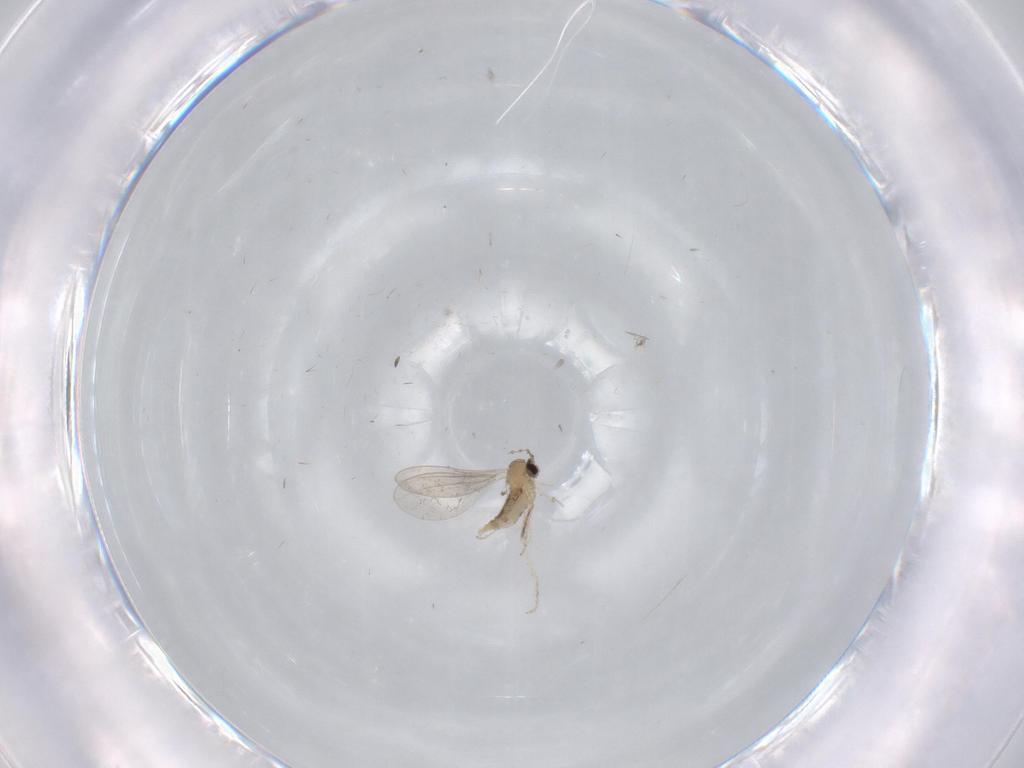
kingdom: Animalia
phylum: Arthropoda
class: Insecta
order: Diptera
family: Cecidomyiidae
